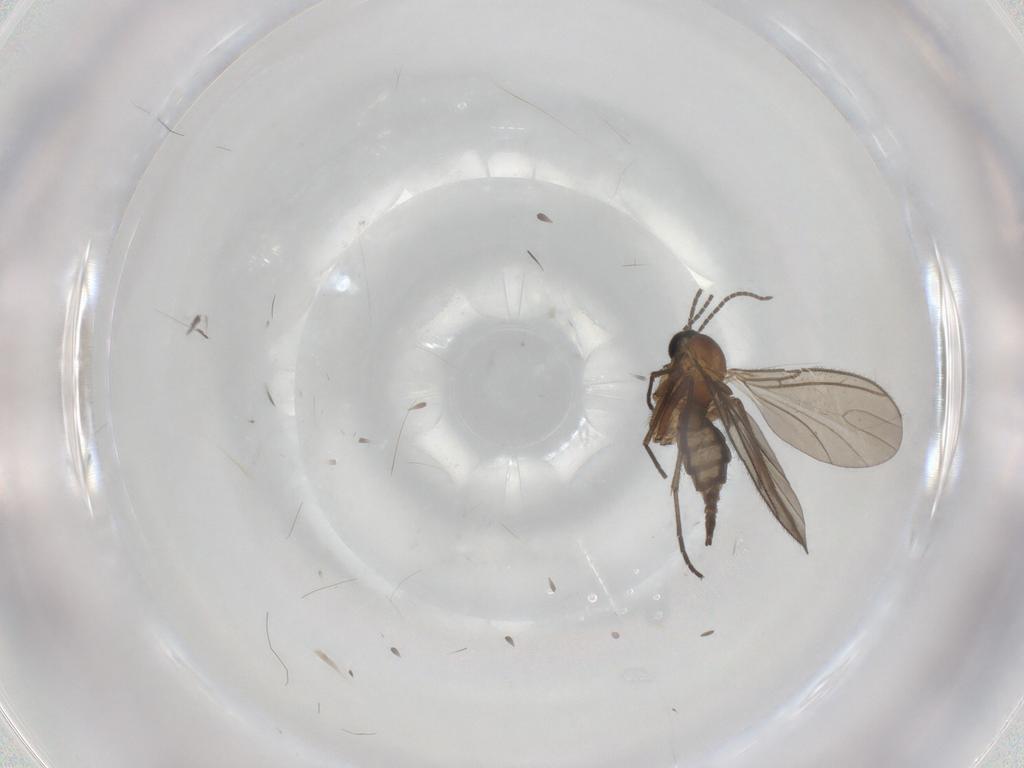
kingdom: Animalia
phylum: Arthropoda
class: Insecta
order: Diptera
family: Sciaridae
